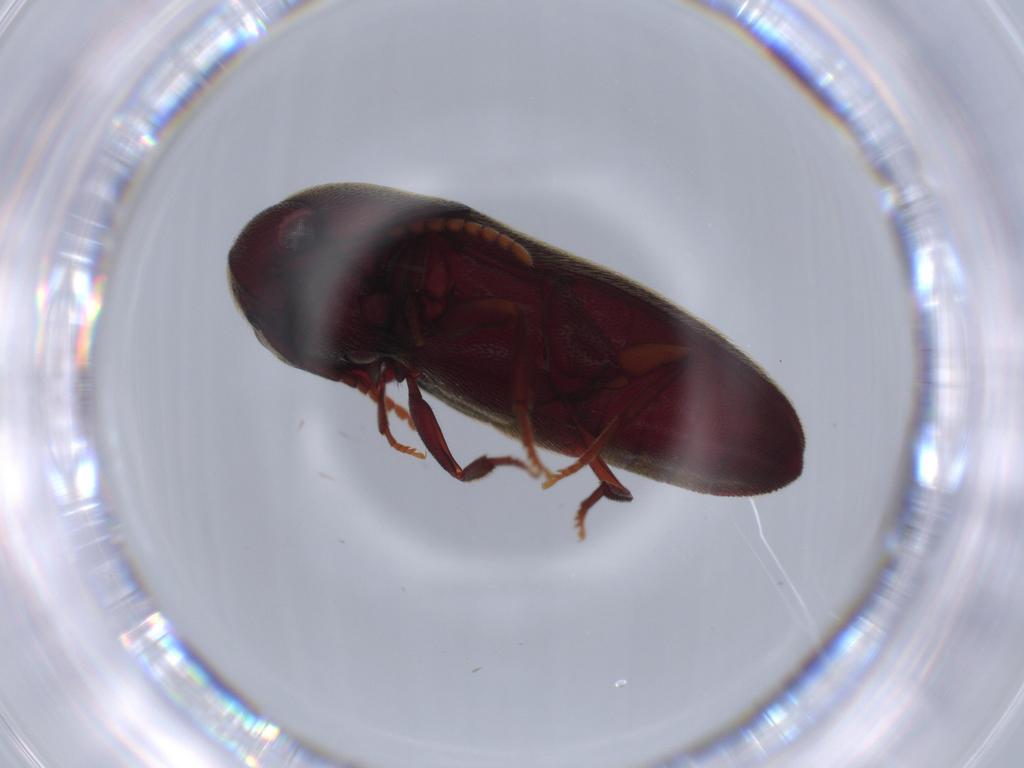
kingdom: Animalia
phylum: Arthropoda
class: Insecta
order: Coleoptera
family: Eucnemidae
